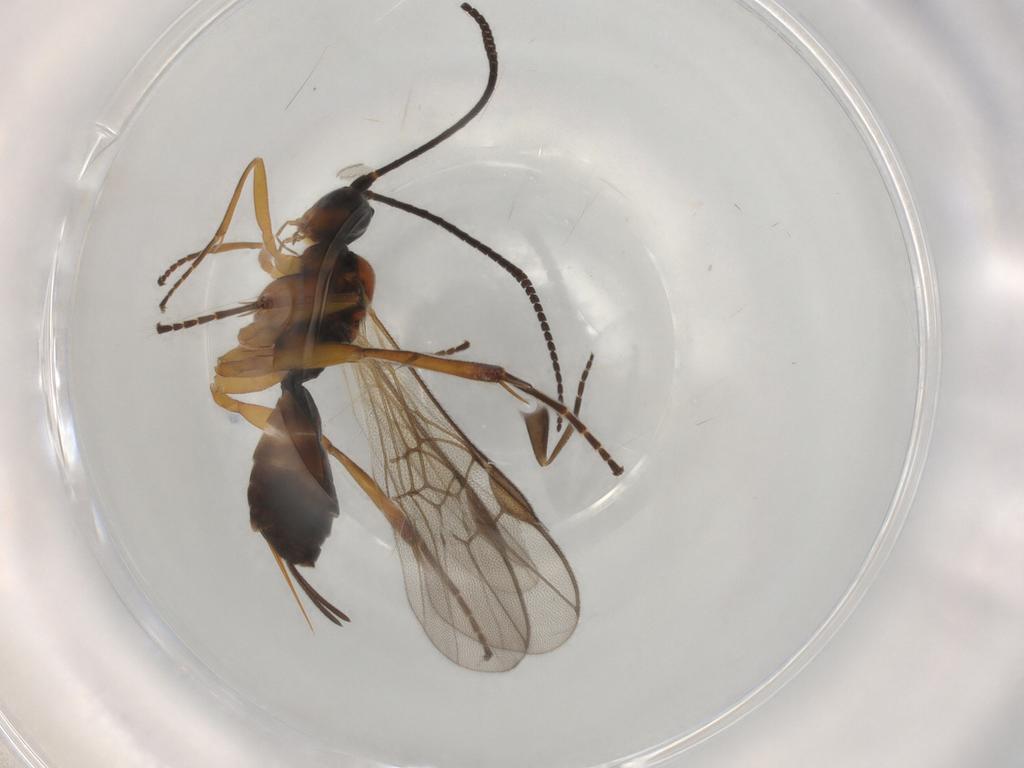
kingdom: Animalia
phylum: Arthropoda
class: Insecta
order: Hymenoptera
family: Braconidae
